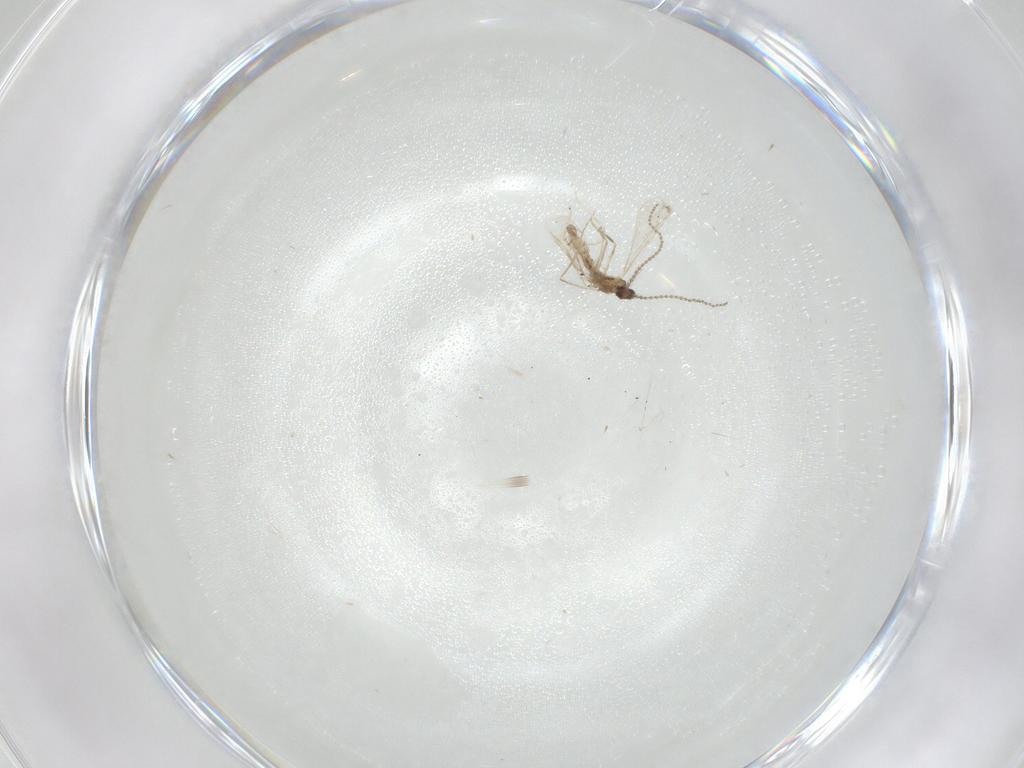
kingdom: Animalia
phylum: Arthropoda
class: Insecta
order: Diptera
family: Cecidomyiidae
